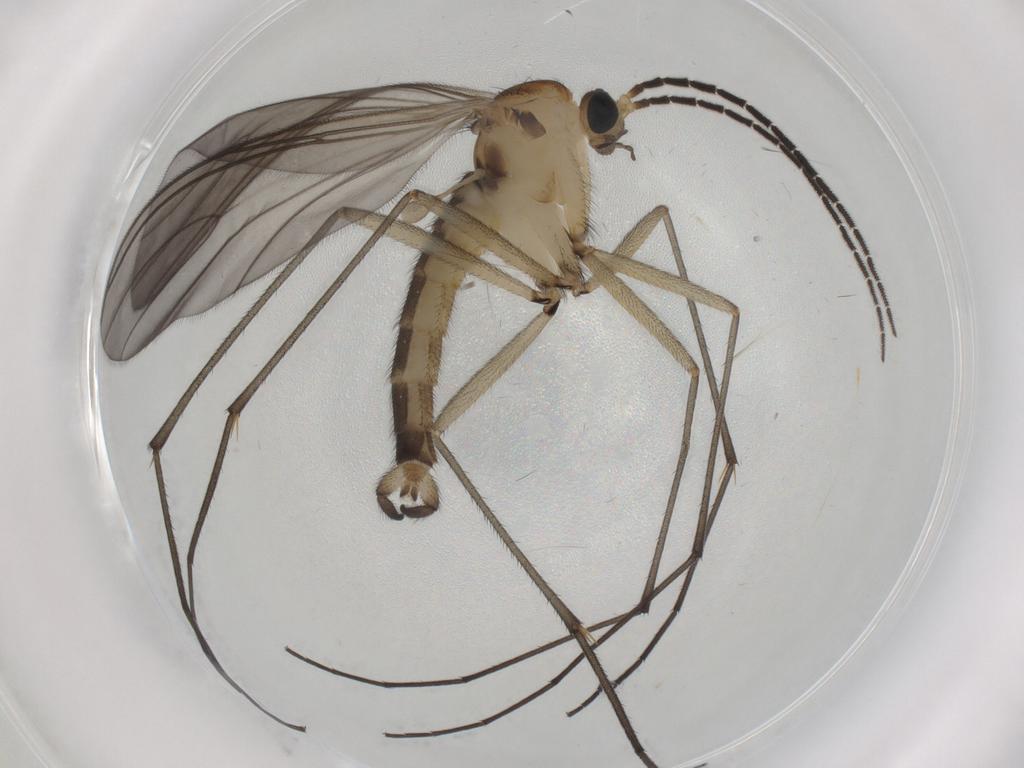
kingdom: Animalia
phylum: Arthropoda
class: Insecta
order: Diptera
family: Sciaridae
